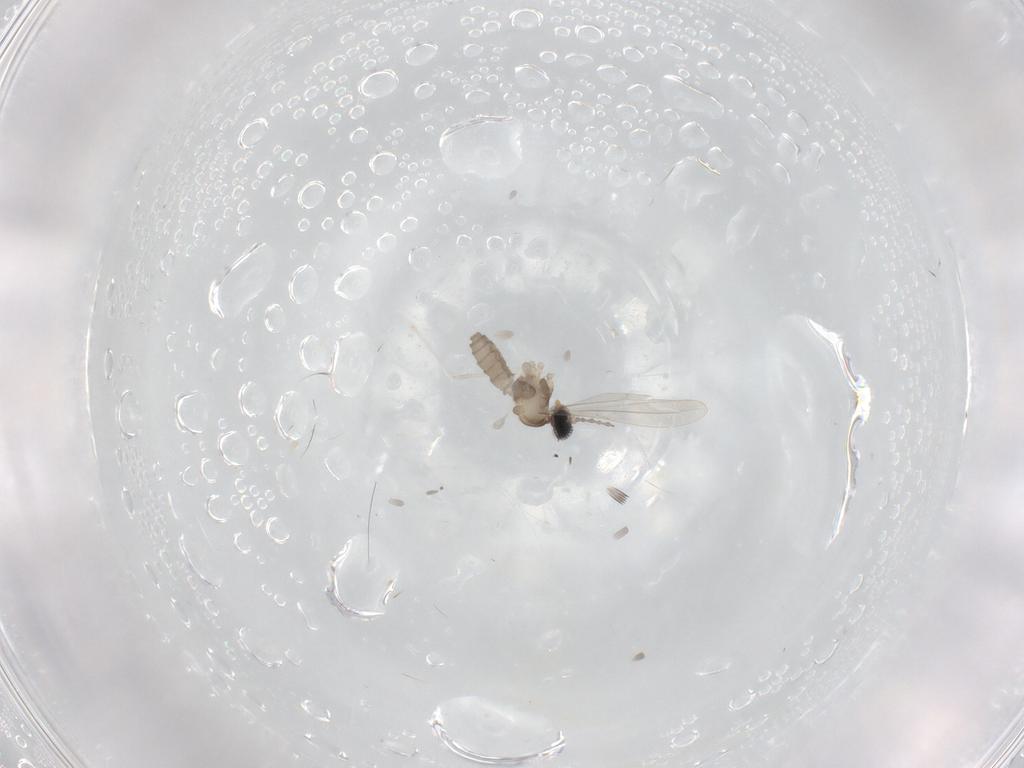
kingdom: Animalia
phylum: Arthropoda
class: Insecta
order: Diptera
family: Cecidomyiidae
